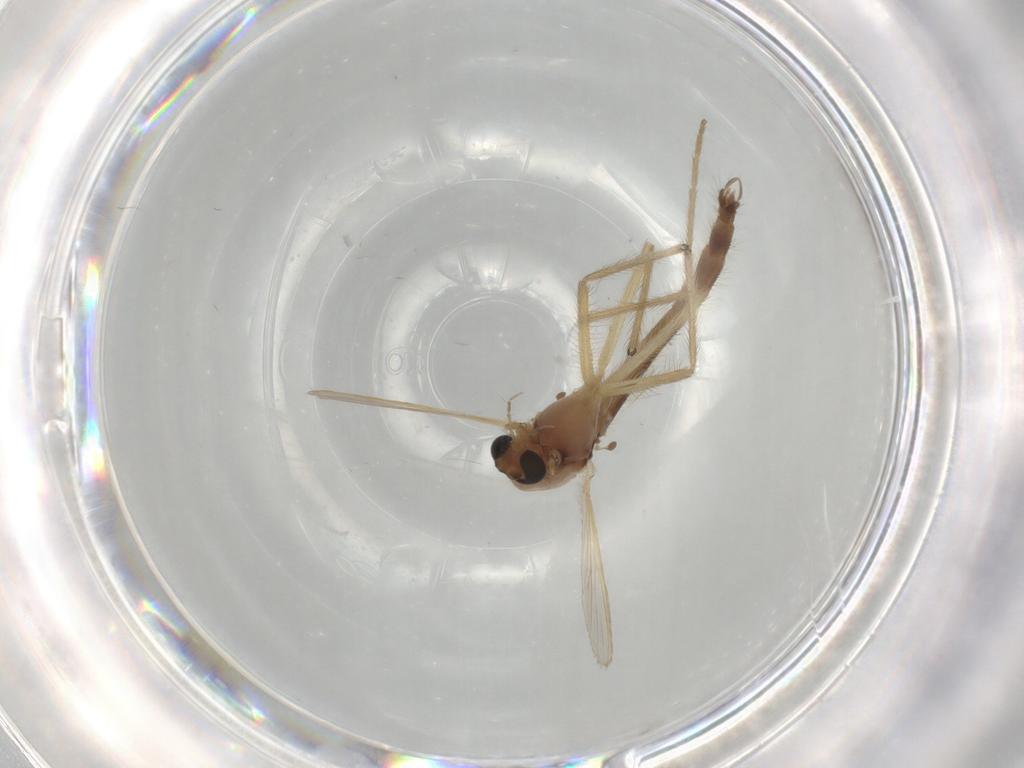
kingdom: Animalia
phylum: Arthropoda
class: Insecta
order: Diptera
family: Chironomidae
